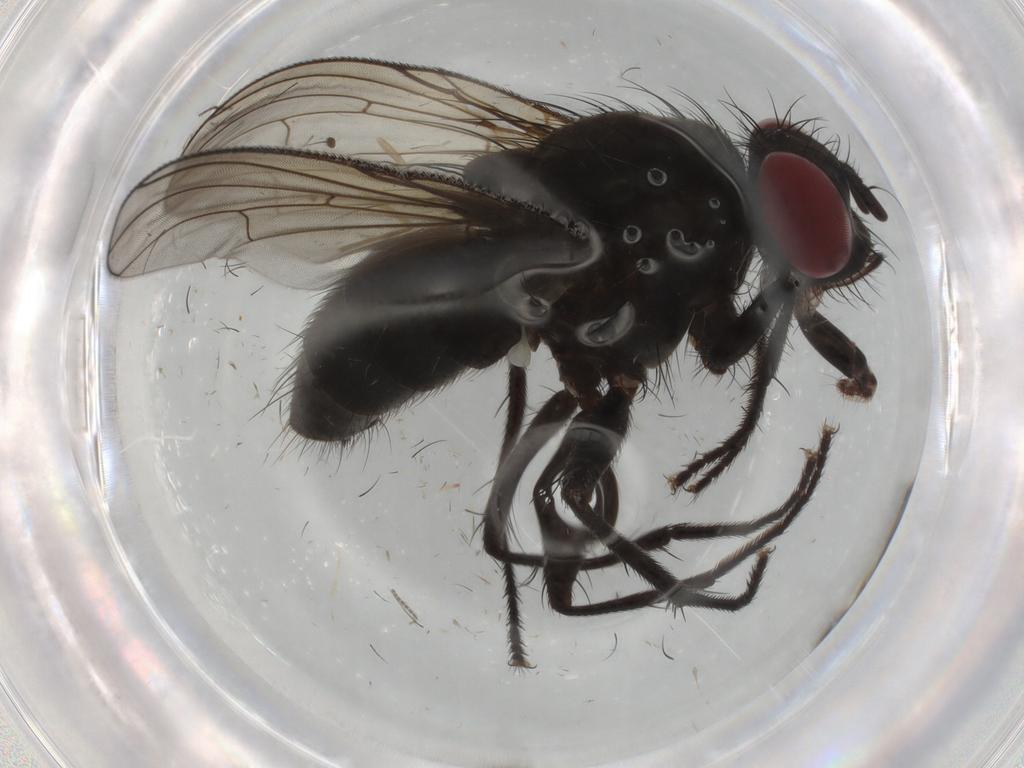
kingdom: Animalia
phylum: Arthropoda
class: Insecta
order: Diptera
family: Muscidae
